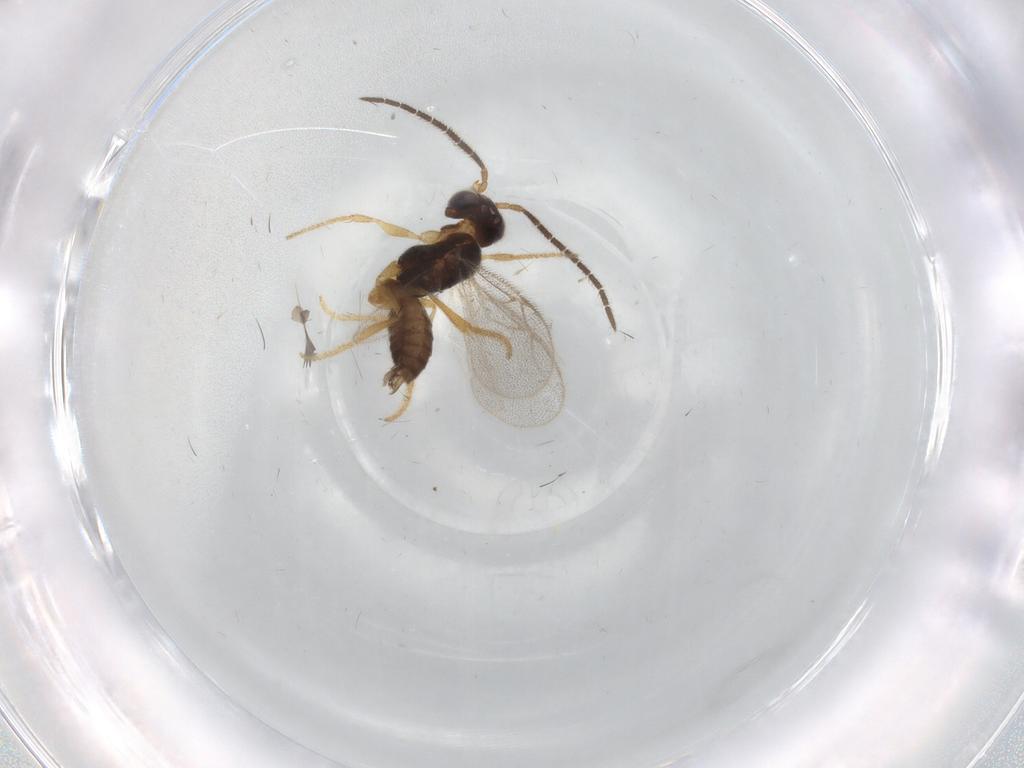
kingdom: Animalia
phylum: Arthropoda
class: Insecta
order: Hymenoptera
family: Dryinidae
